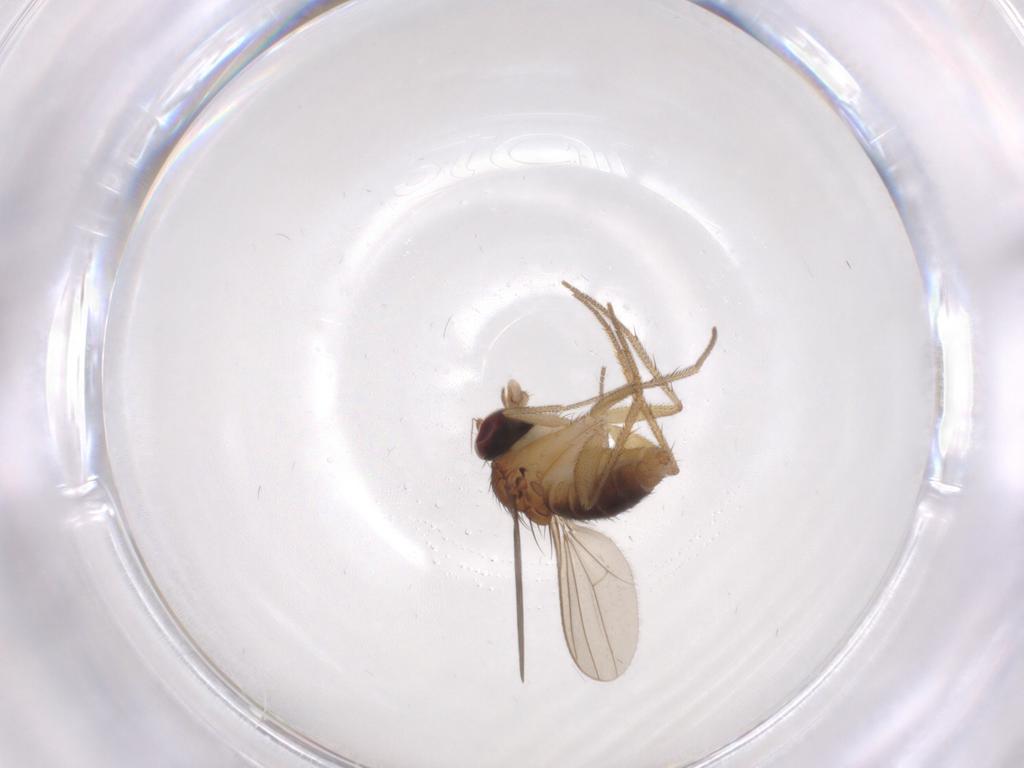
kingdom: Animalia
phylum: Arthropoda
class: Insecta
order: Diptera
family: Dolichopodidae
